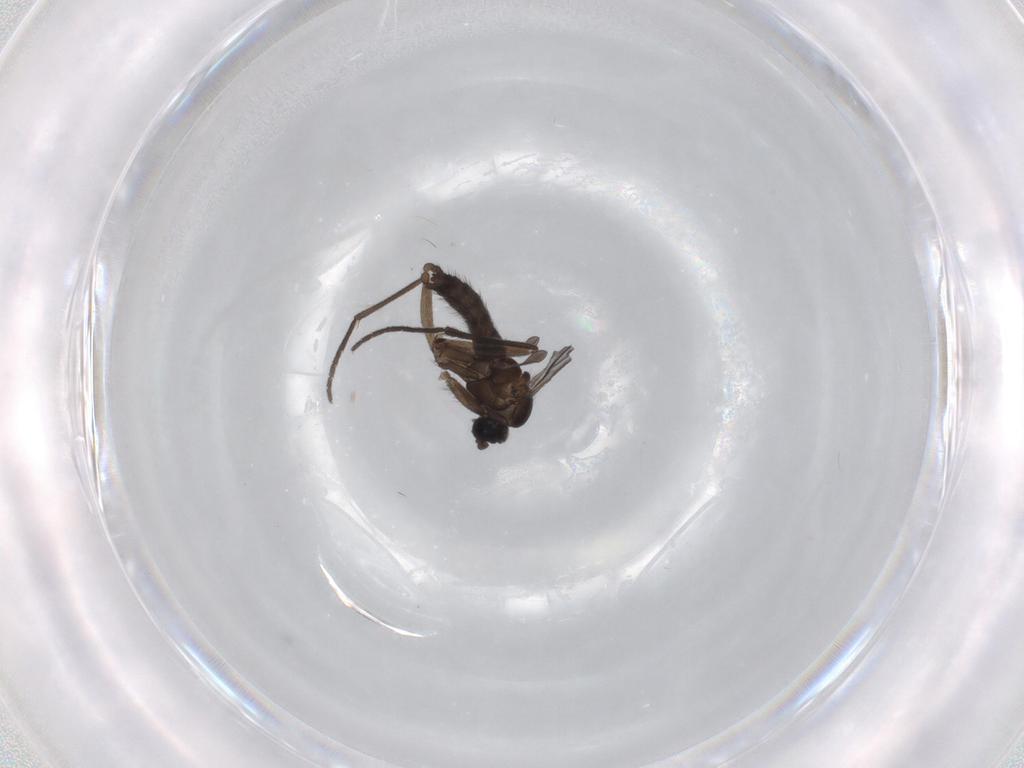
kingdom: Animalia
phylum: Arthropoda
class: Insecta
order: Diptera
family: Sciaridae
